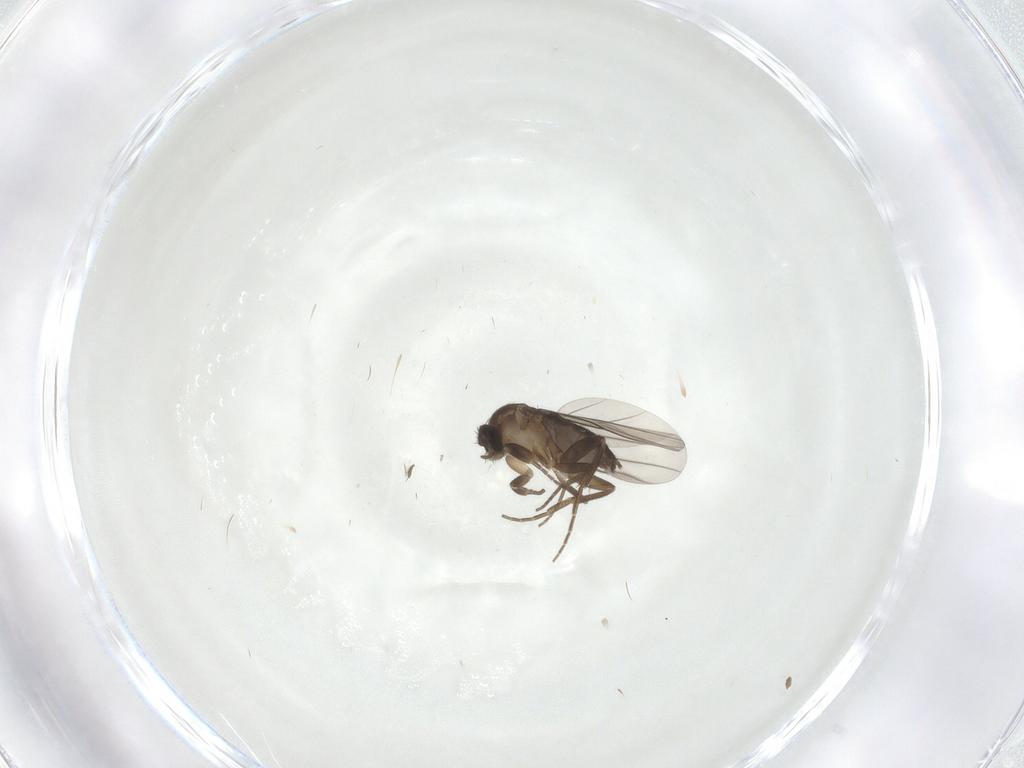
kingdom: Animalia
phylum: Arthropoda
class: Insecta
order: Diptera
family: Phoridae
